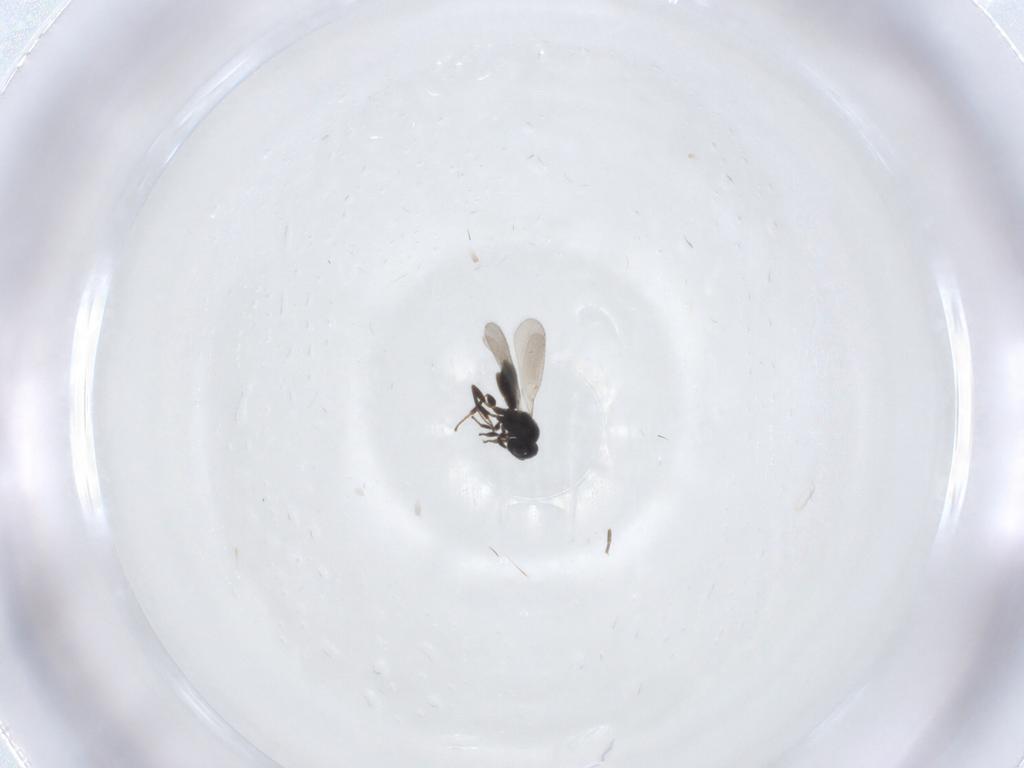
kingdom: Animalia
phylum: Arthropoda
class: Insecta
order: Hymenoptera
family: Platygastridae
